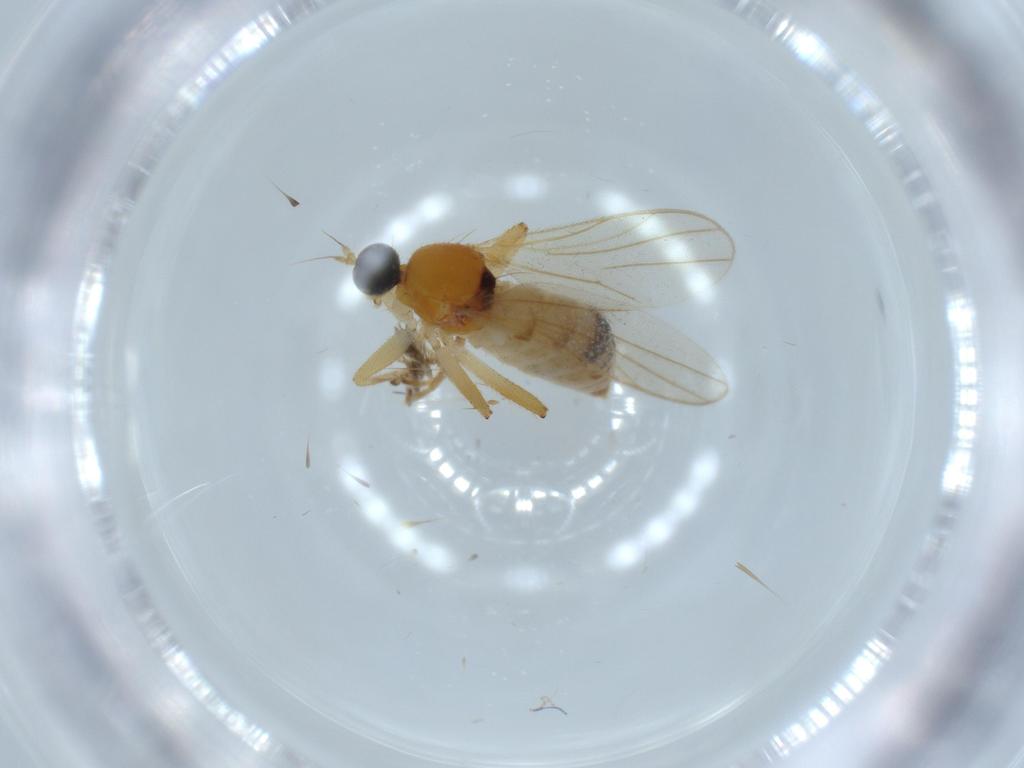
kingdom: Animalia
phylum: Arthropoda
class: Insecta
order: Diptera
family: Hybotidae
